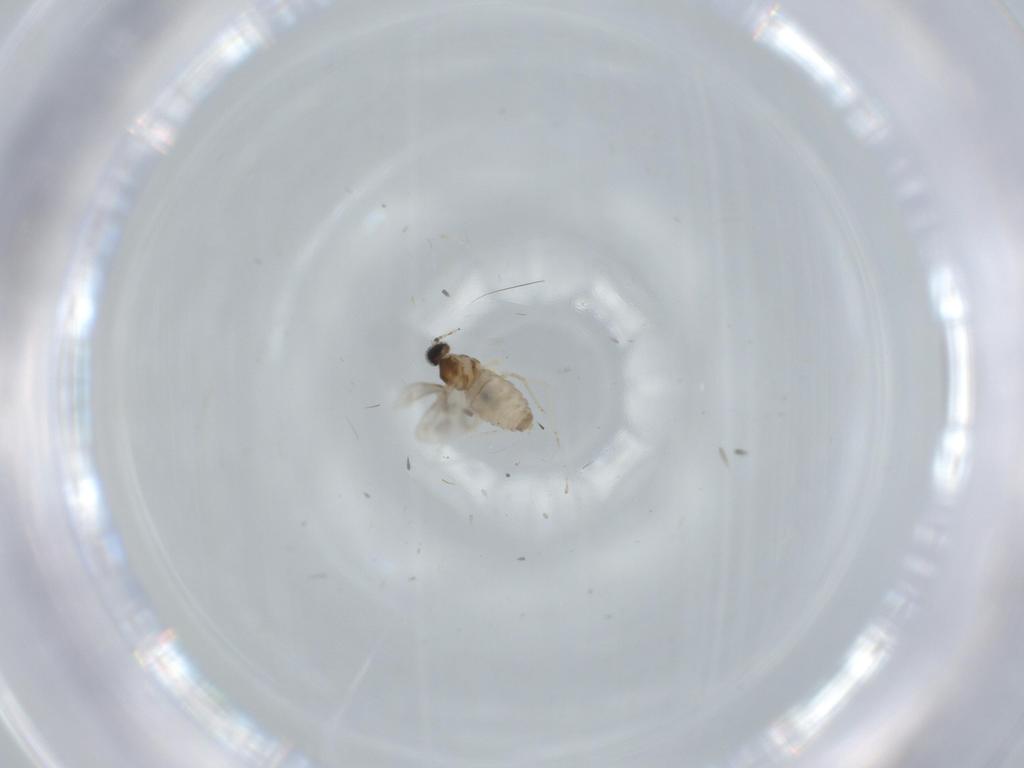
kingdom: Animalia
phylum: Arthropoda
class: Insecta
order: Diptera
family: Cecidomyiidae
